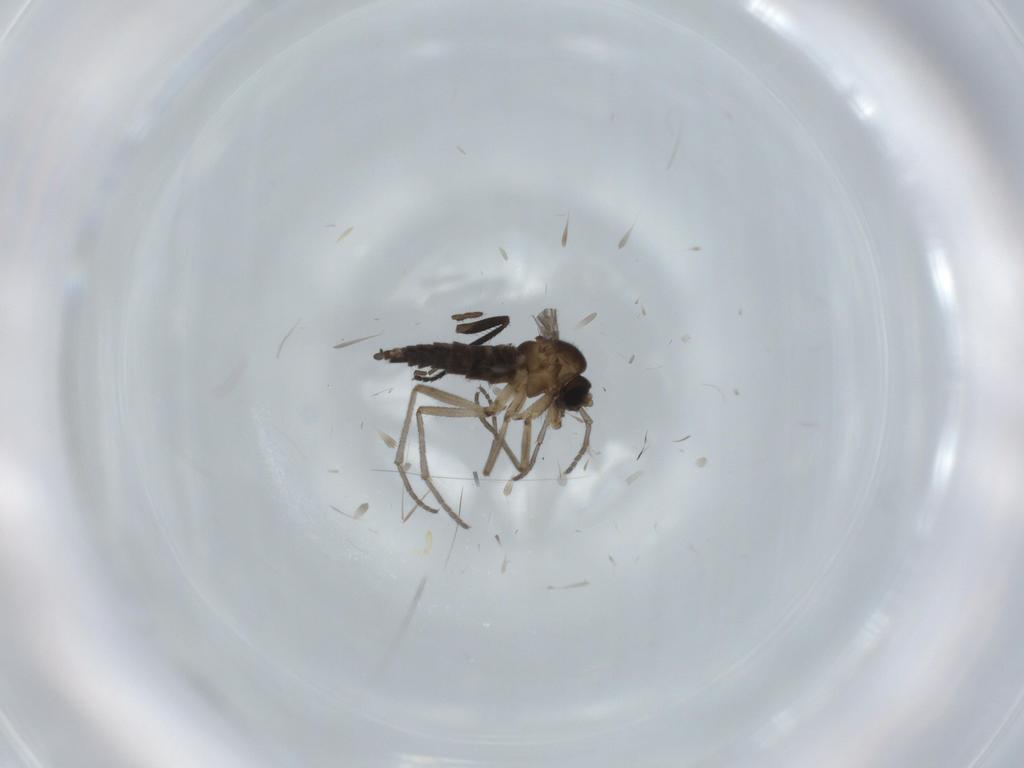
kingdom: Animalia
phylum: Arthropoda
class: Insecta
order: Diptera
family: Sciaridae
